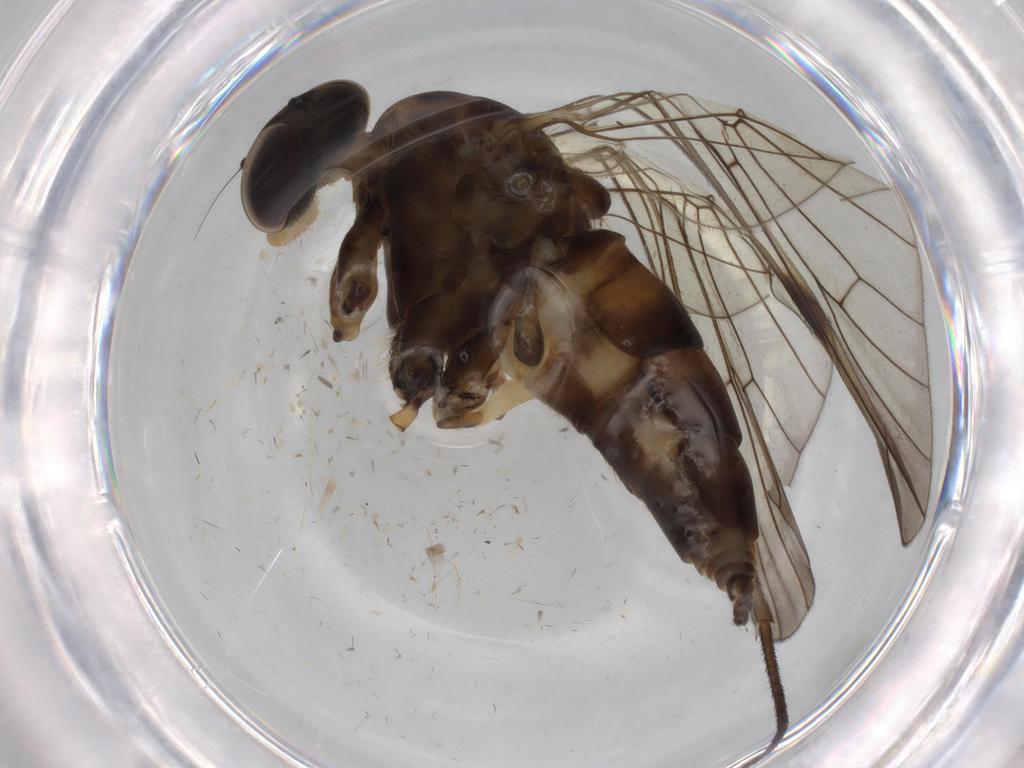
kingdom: Animalia
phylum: Arthropoda
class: Insecta
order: Diptera
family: Phoridae
